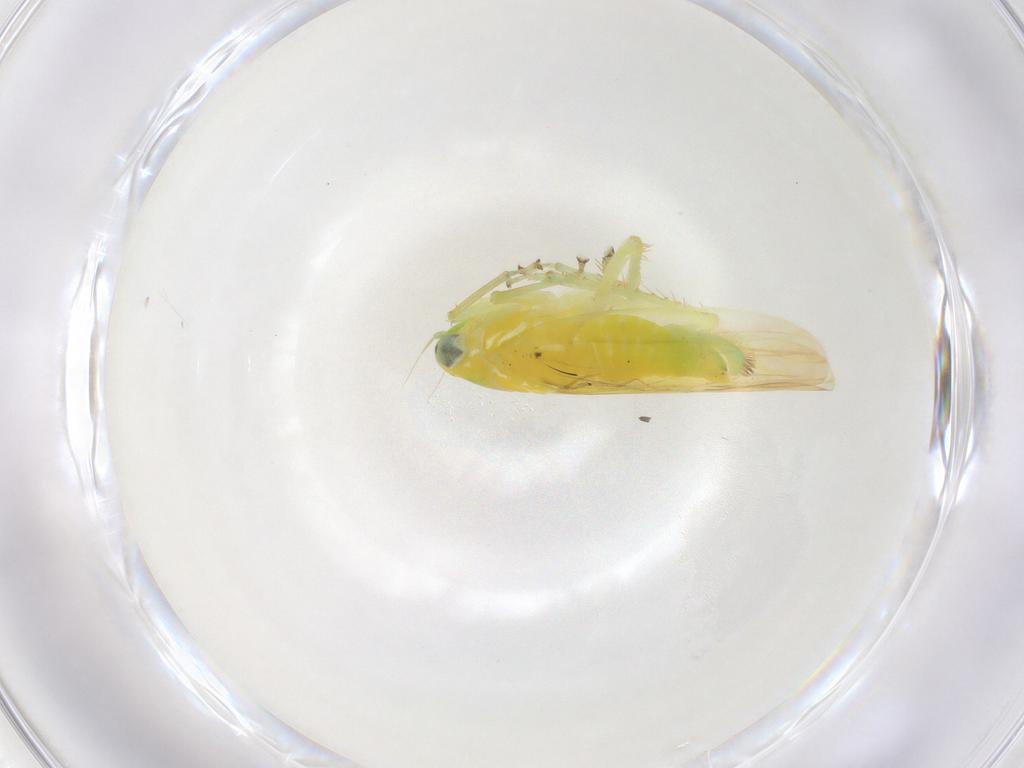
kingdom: Animalia
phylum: Arthropoda
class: Insecta
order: Hemiptera
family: Cicadellidae
